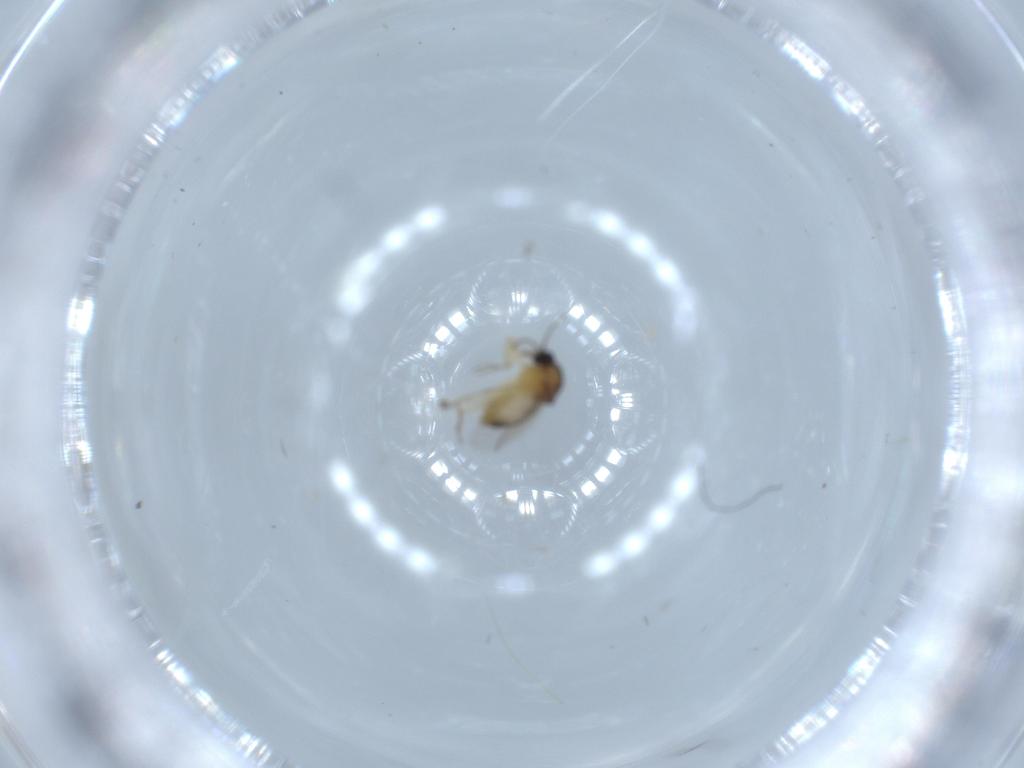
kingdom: Animalia
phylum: Arthropoda
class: Insecta
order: Diptera
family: Ceratopogonidae
